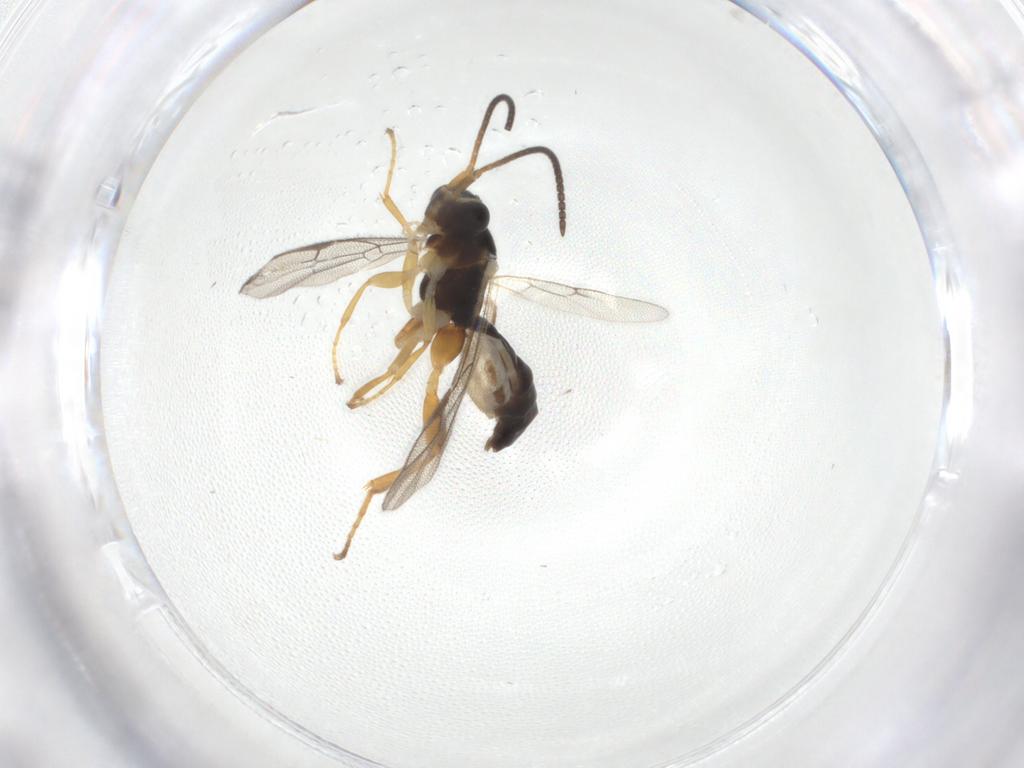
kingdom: Animalia
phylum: Arthropoda
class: Insecta
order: Hymenoptera
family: Ichneumonidae
